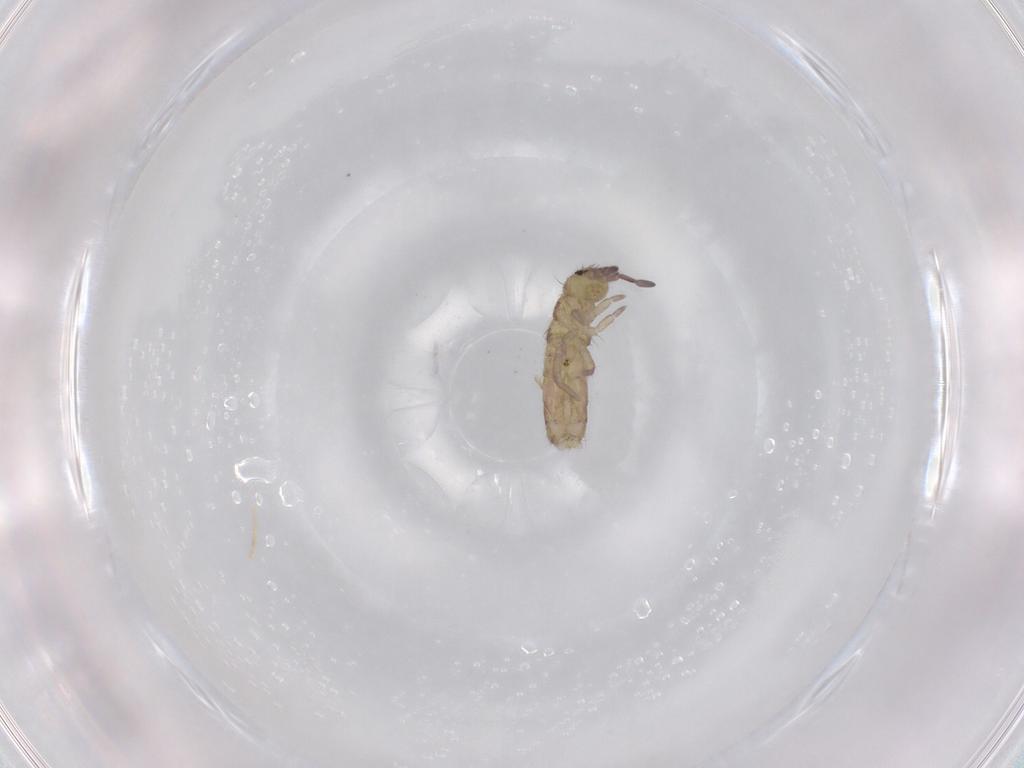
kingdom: Animalia
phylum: Arthropoda
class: Collembola
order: Entomobryomorpha
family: Isotomidae
